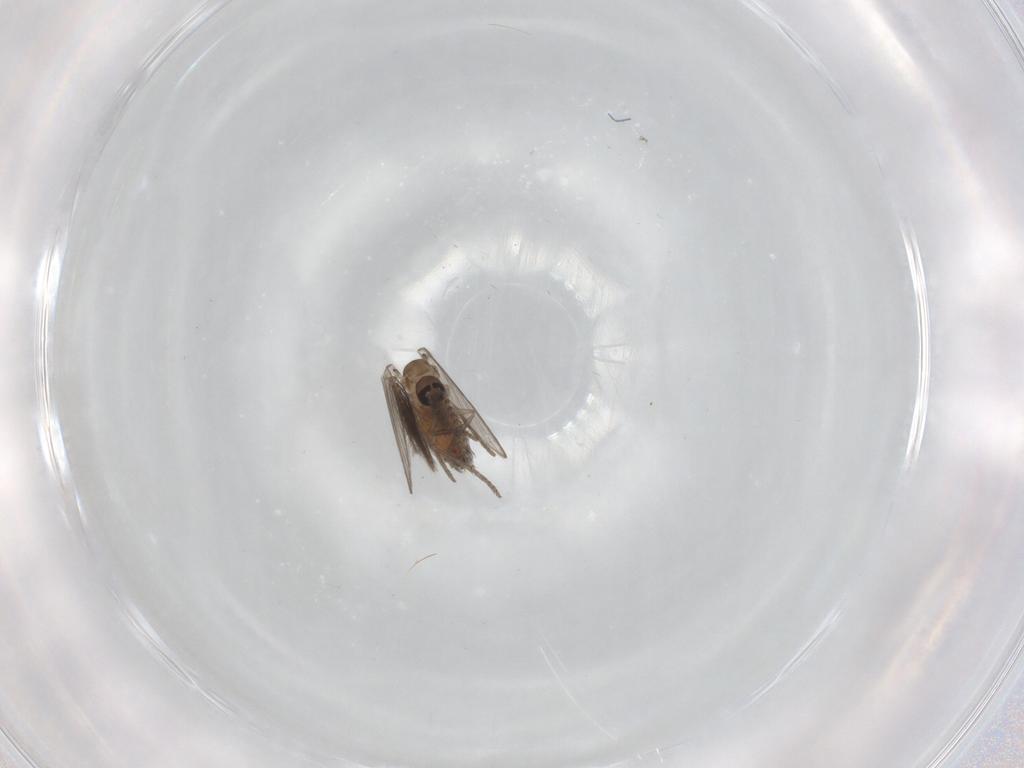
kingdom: Animalia
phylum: Arthropoda
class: Insecta
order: Diptera
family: Psychodidae
